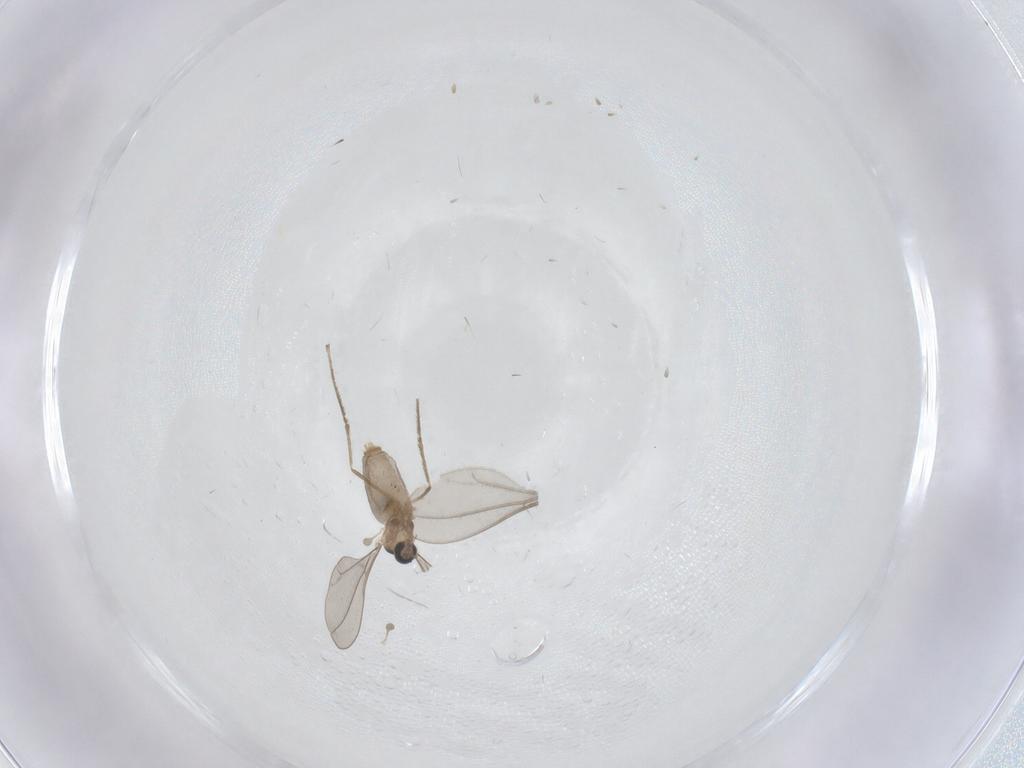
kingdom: Animalia
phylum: Arthropoda
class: Insecta
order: Diptera
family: Cecidomyiidae
